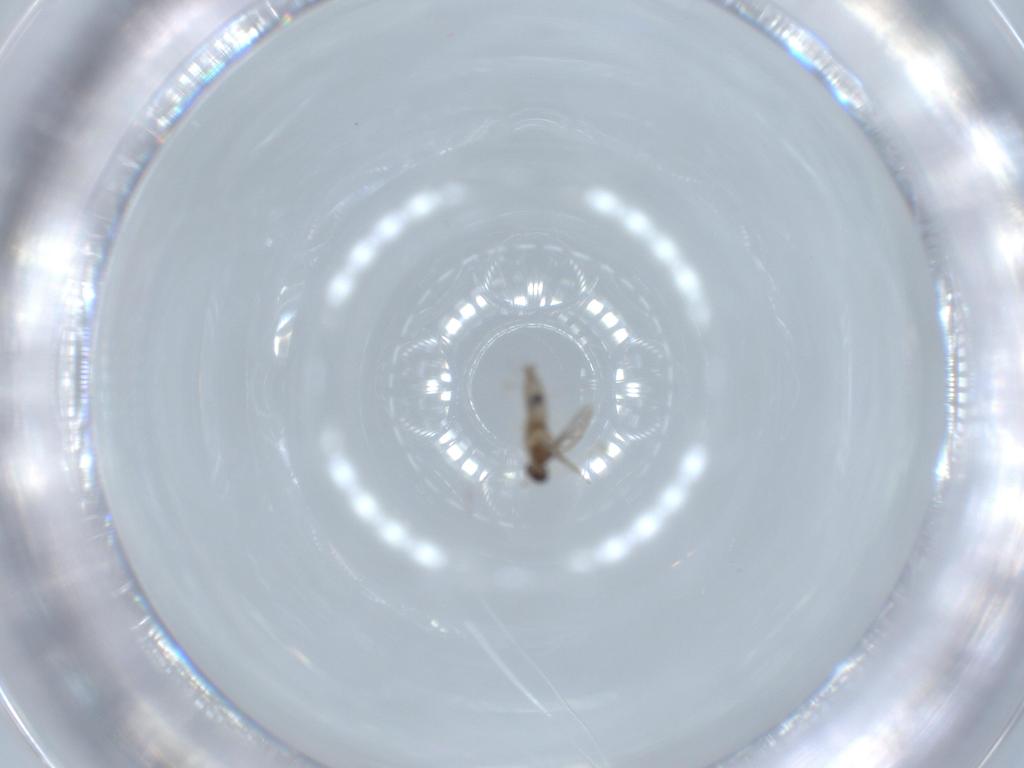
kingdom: Animalia
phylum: Arthropoda
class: Insecta
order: Diptera
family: Cecidomyiidae
